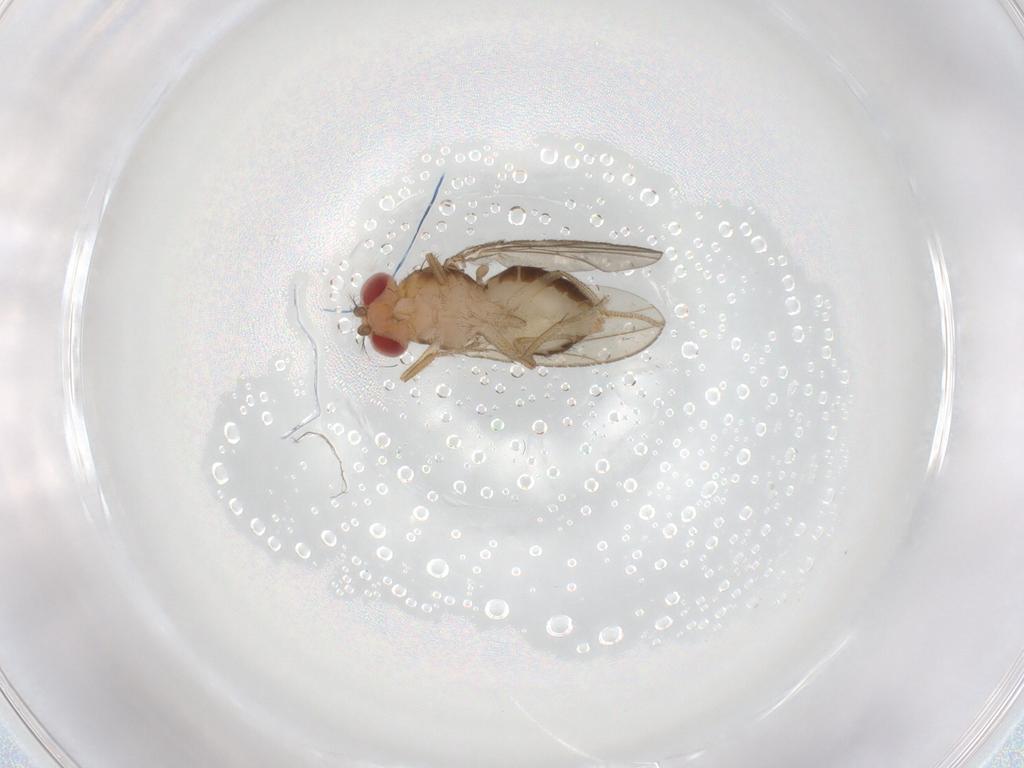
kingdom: Animalia
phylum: Arthropoda
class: Insecta
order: Diptera
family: Drosophilidae
